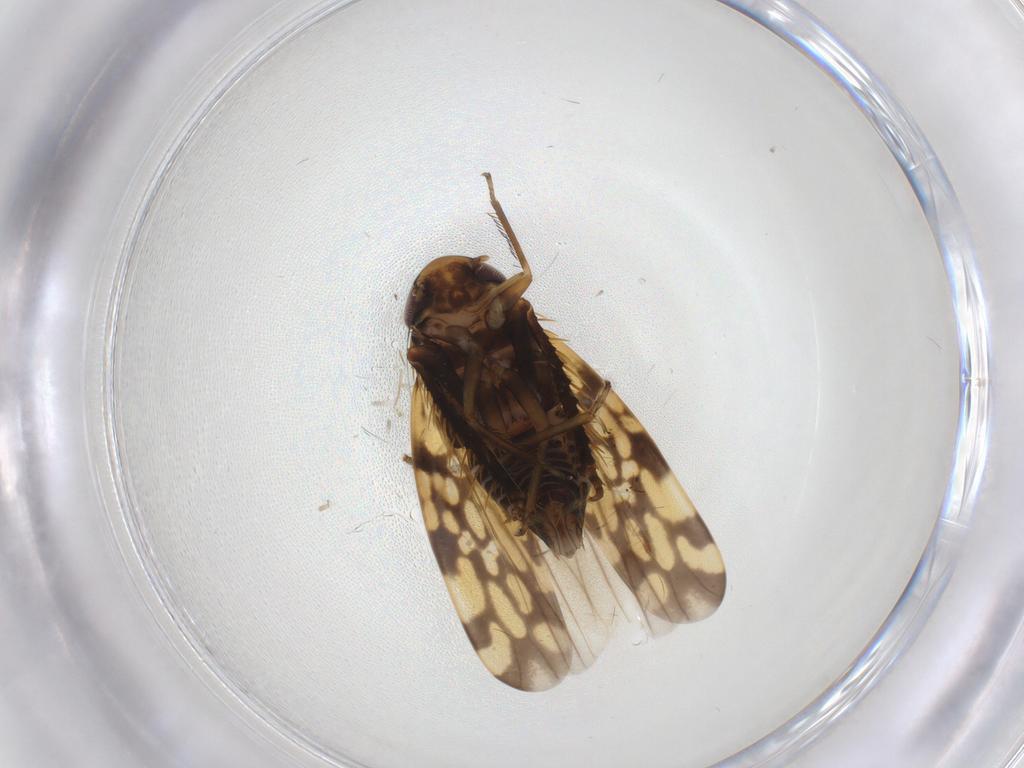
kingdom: Animalia
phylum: Arthropoda
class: Insecta
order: Hemiptera
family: Cicadellidae
